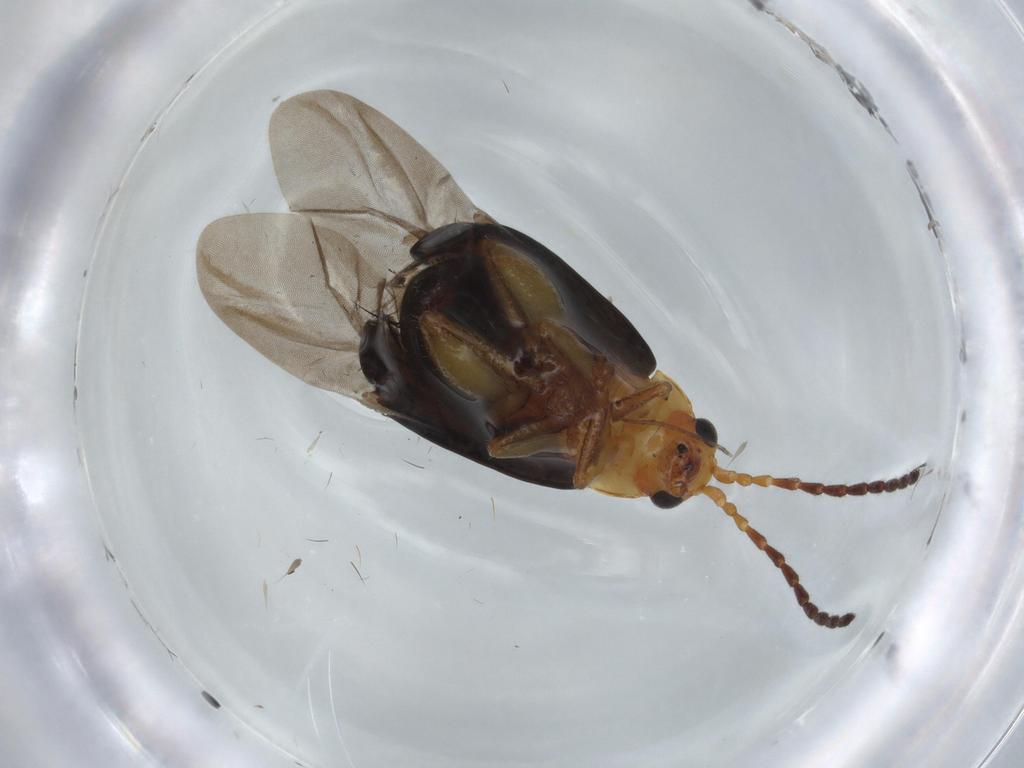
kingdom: Animalia
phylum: Arthropoda
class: Insecta
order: Coleoptera
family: Chrysomelidae
